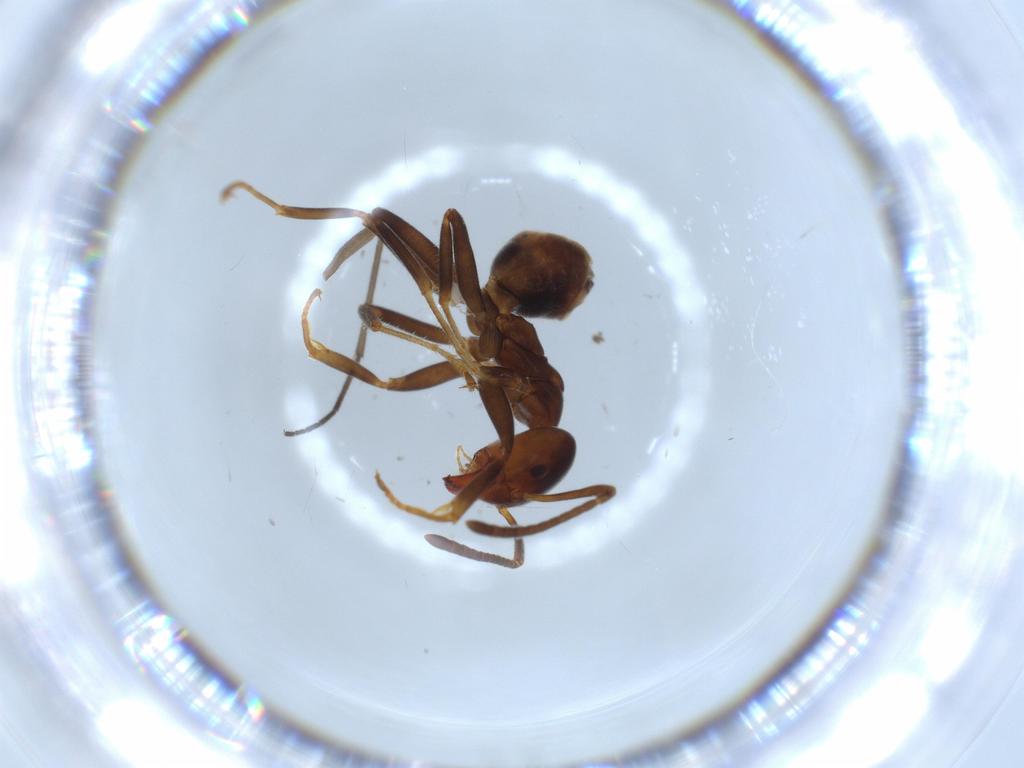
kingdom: Animalia
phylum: Arthropoda
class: Insecta
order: Hymenoptera
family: Formicidae
